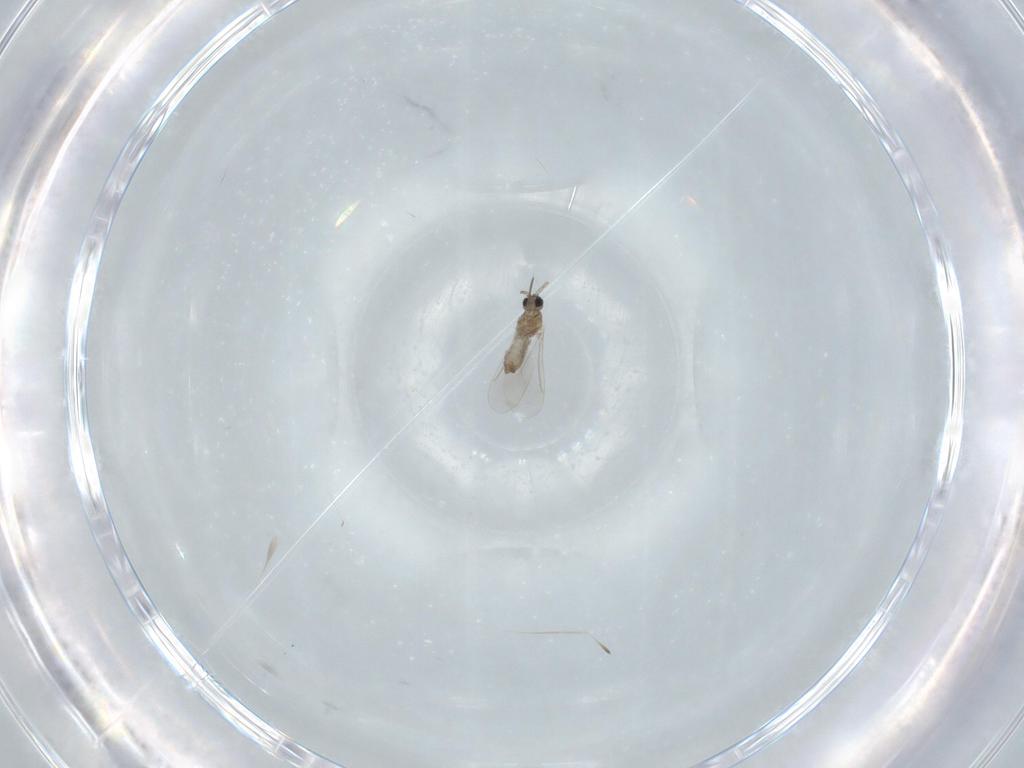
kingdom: Animalia
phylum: Arthropoda
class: Insecta
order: Diptera
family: Cecidomyiidae
